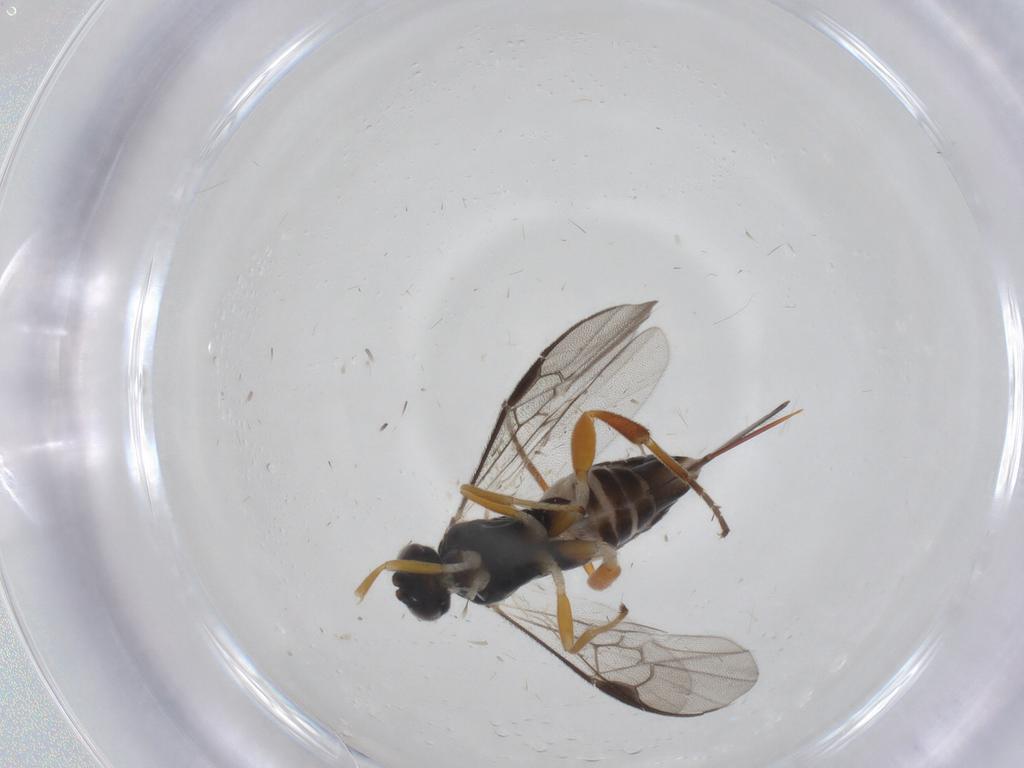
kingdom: Animalia
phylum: Arthropoda
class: Insecta
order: Hymenoptera
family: Braconidae
